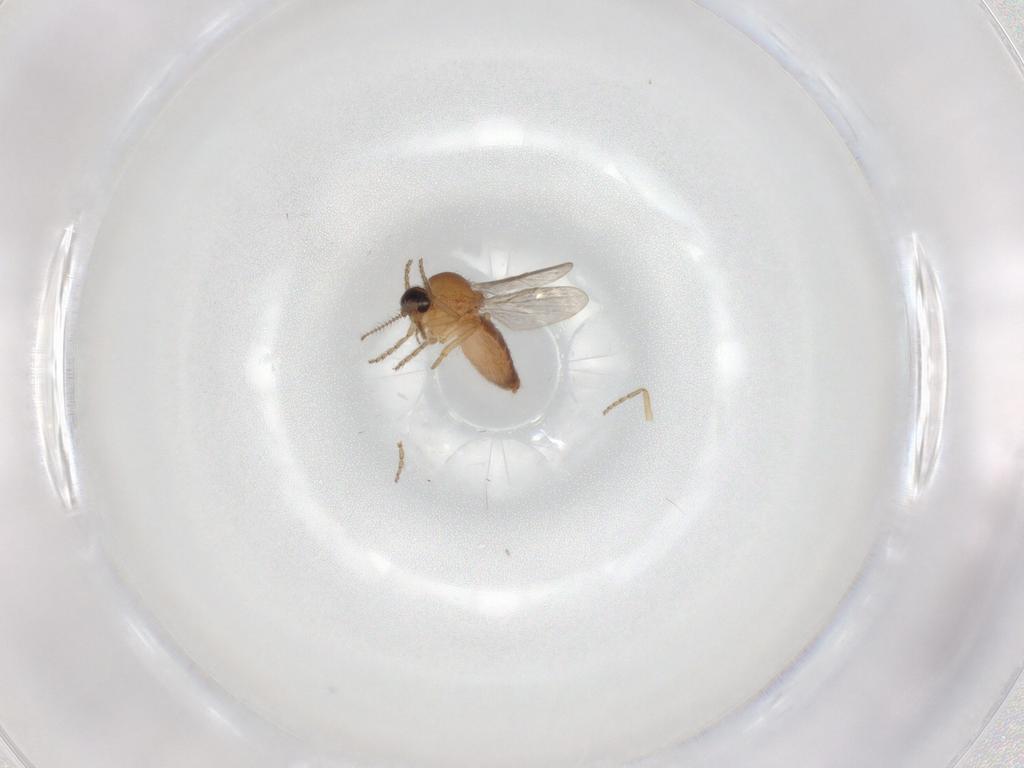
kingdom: Animalia
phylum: Arthropoda
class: Insecta
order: Diptera
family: Ceratopogonidae
